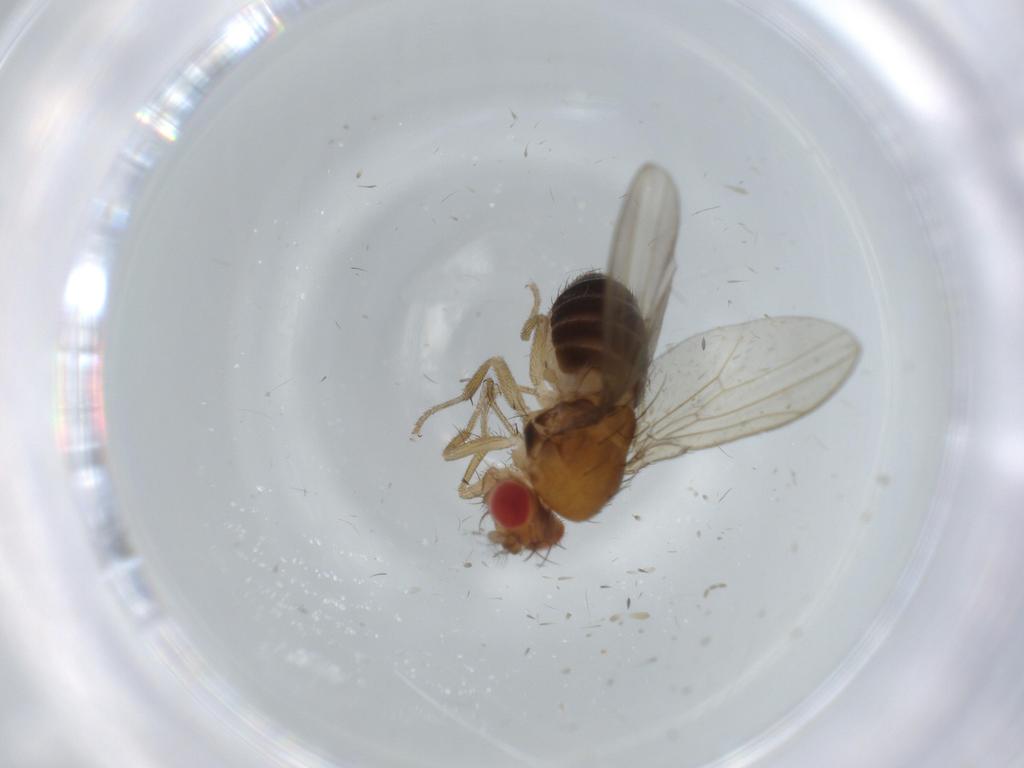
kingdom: Animalia
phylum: Arthropoda
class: Insecta
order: Diptera
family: Drosophilidae
